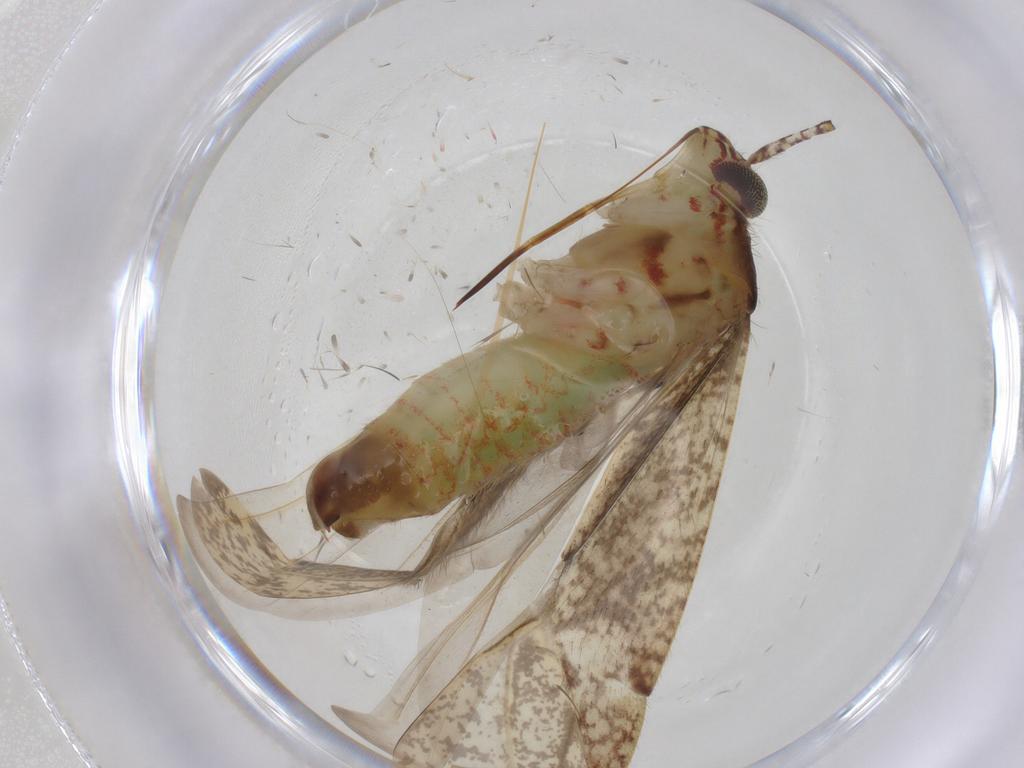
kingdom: Animalia
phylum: Arthropoda
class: Insecta
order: Hemiptera
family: Miridae
